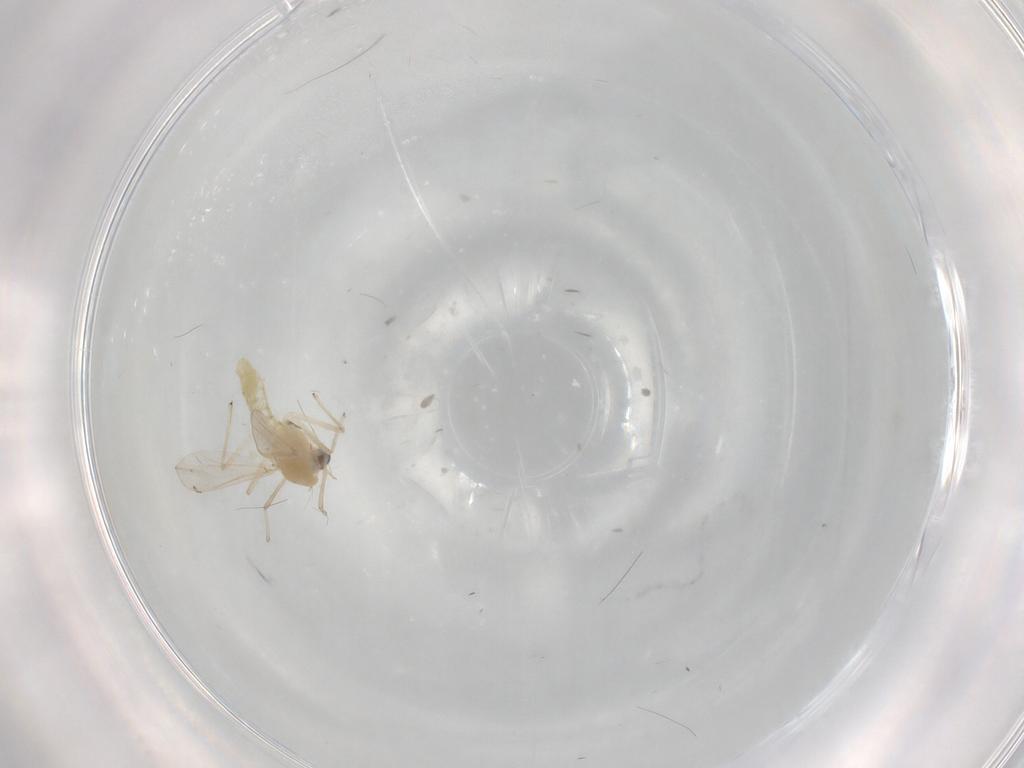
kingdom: Animalia
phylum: Arthropoda
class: Insecta
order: Diptera
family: Chironomidae
